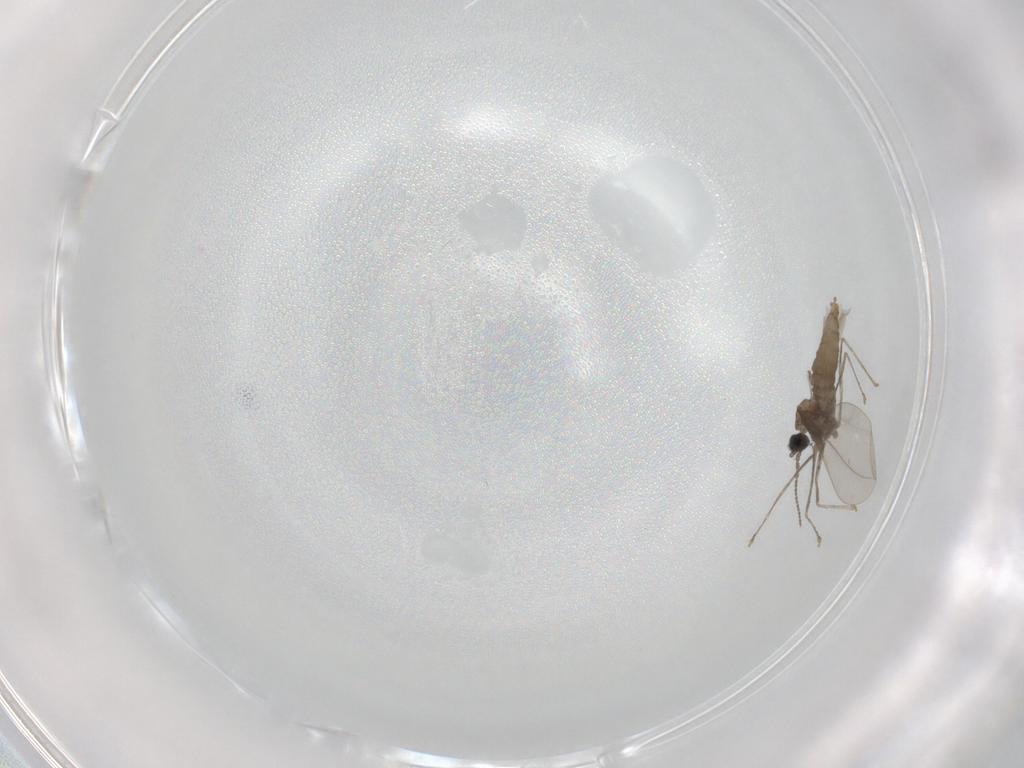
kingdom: Animalia
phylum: Arthropoda
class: Insecta
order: Diptera
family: Cecidomyiidae
